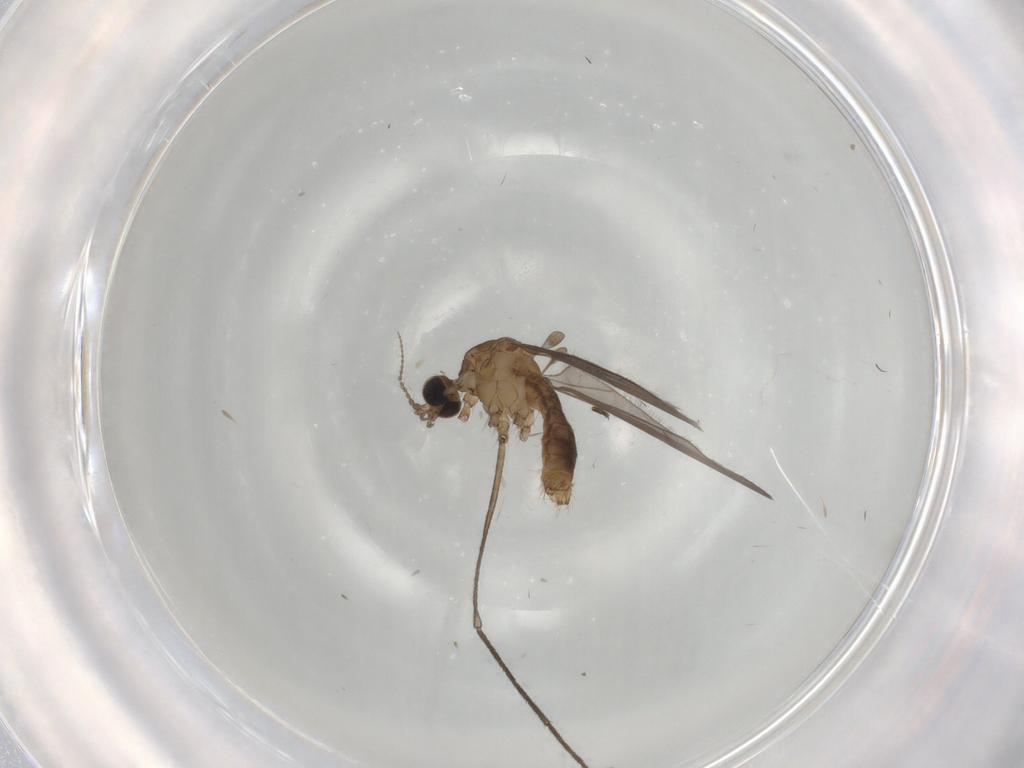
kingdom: Animalia
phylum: Arthropoda
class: Insecta
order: Diptera
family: Limoniidae
